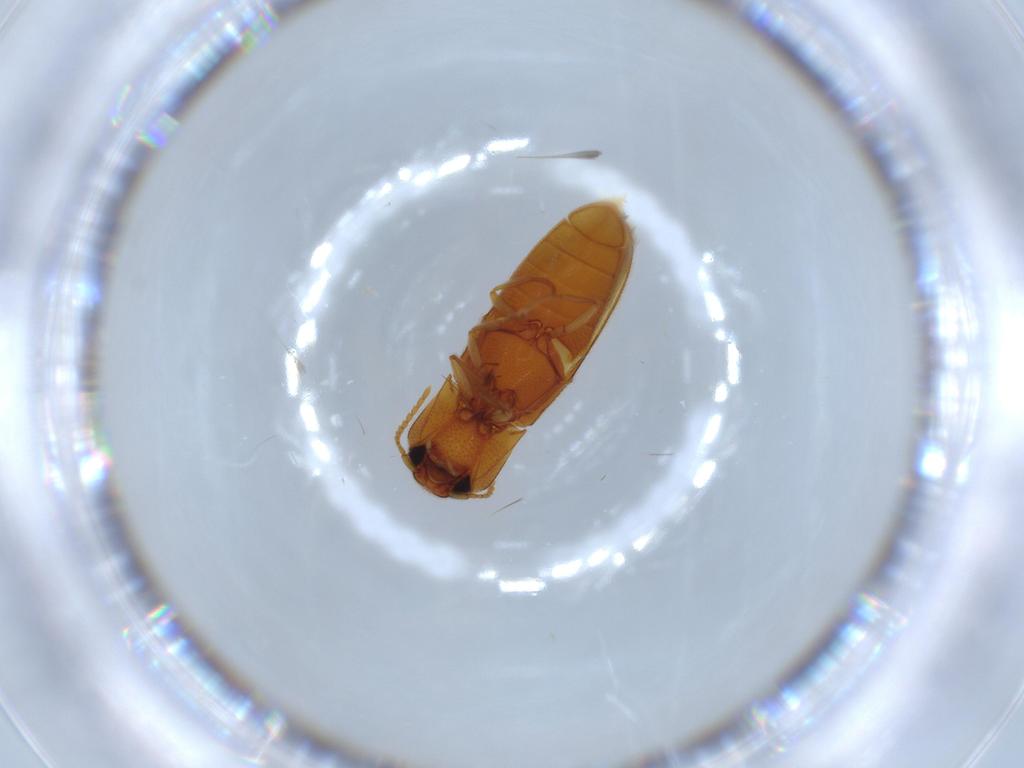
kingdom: Animalia
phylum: Arthropoda
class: Insecta
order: Coleoptera
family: Elateridae
